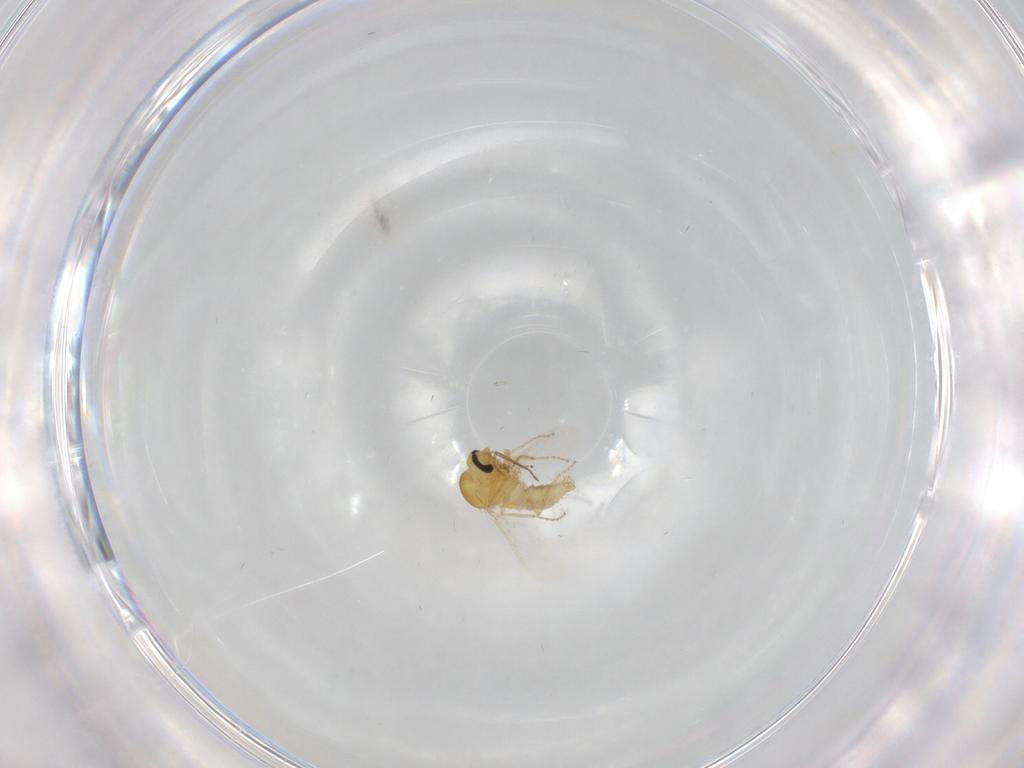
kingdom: Animalia
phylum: Arthropoda
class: Insecta
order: Diptera
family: Ceratopogonidae
